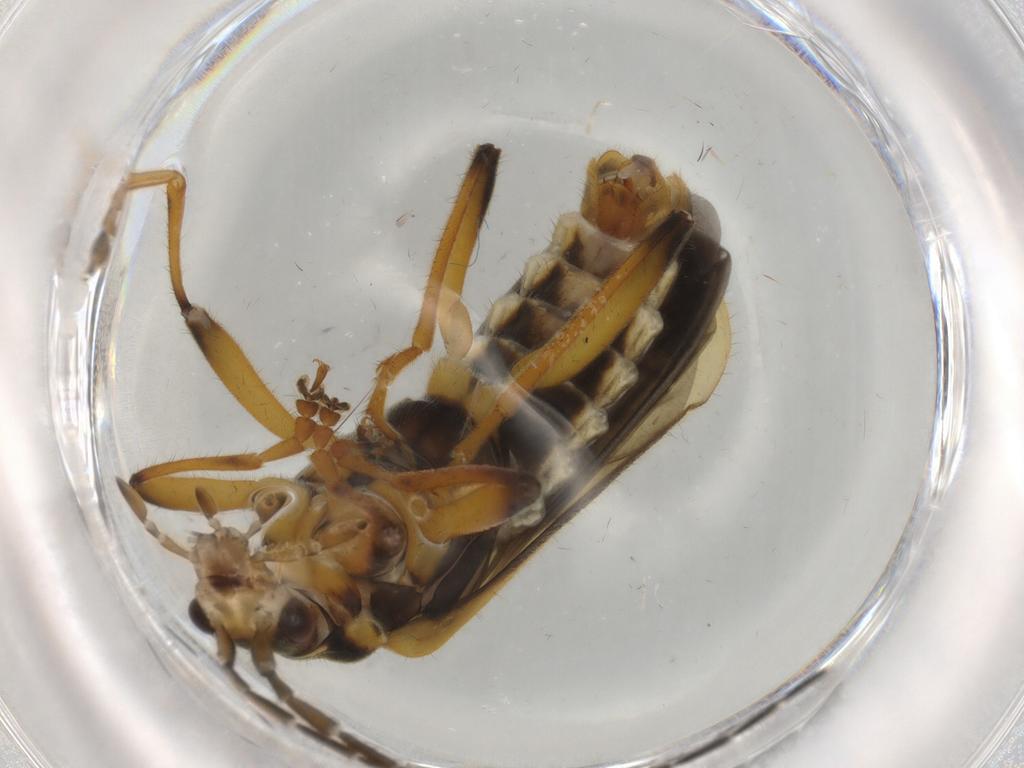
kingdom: Animalia
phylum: Arthropoda
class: Insecta
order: Coleoptera
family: Cantharidae
